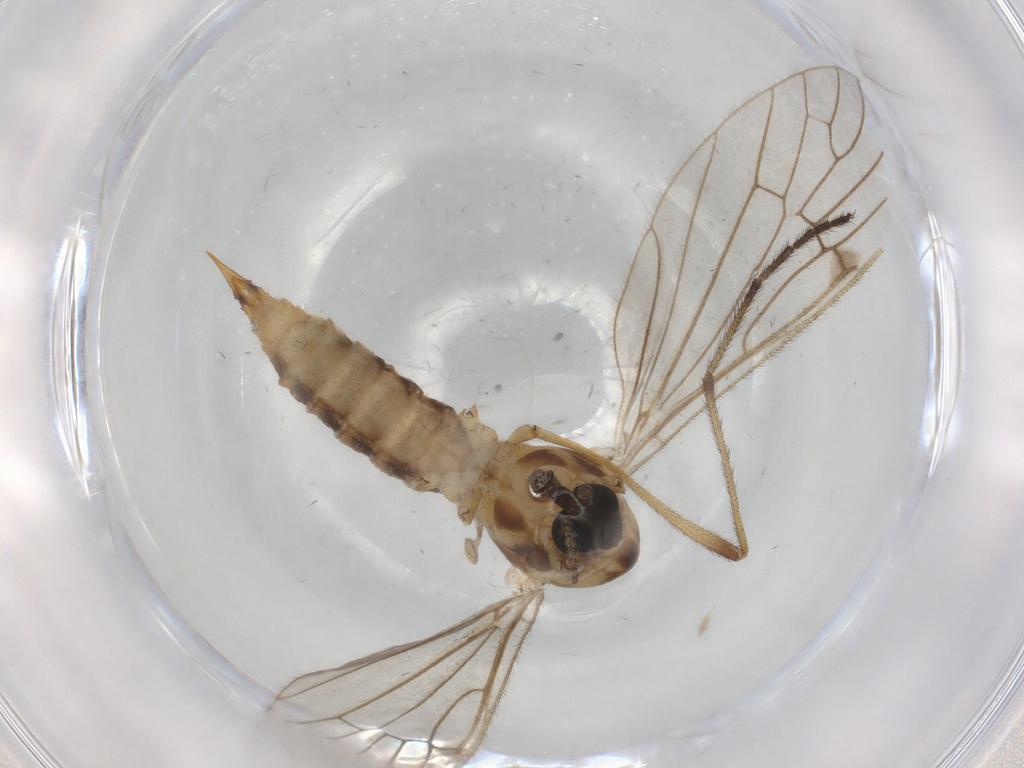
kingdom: Animalia
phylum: Arthropoda
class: Insecta
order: Diptera
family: Limoniidae
